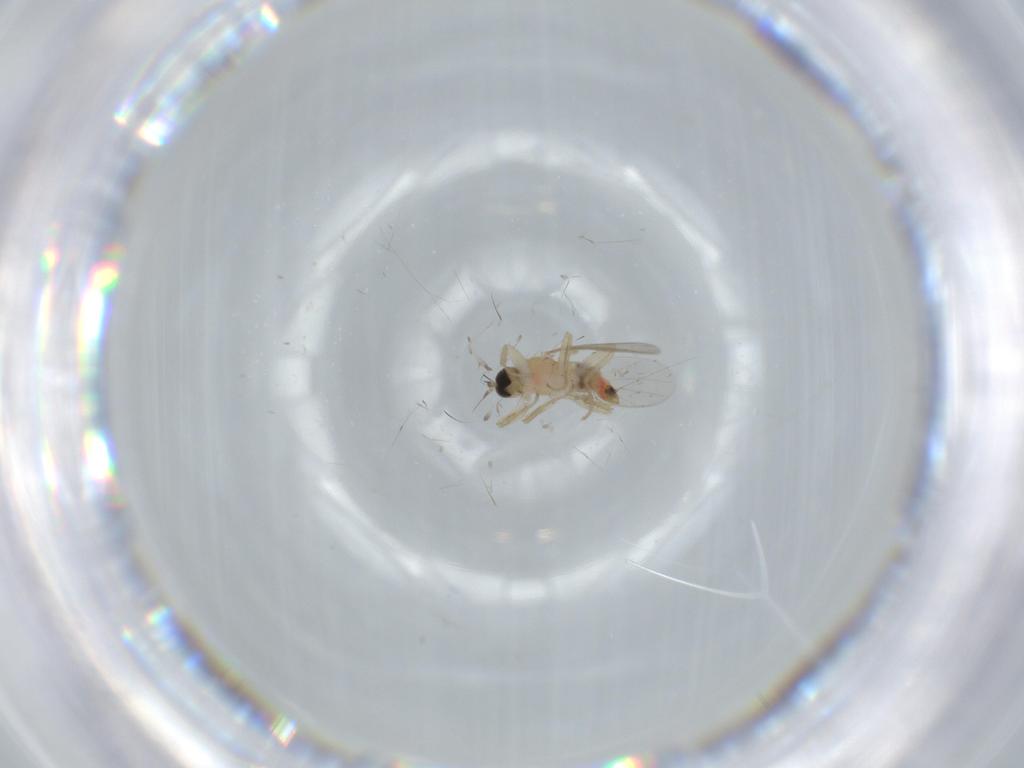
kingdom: Animalia
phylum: Arthropoda
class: Insecta
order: Diptera
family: Hybotidae
